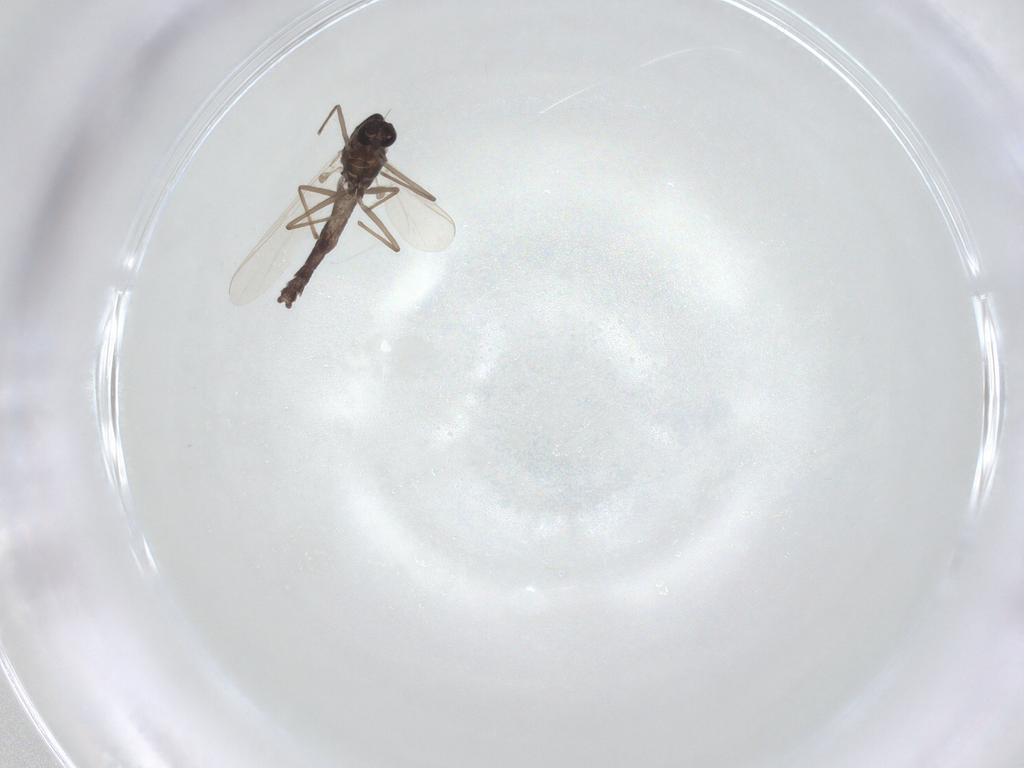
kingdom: Animalia
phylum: Arthropoda
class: Insecta
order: Diptera
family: Chironomidae
